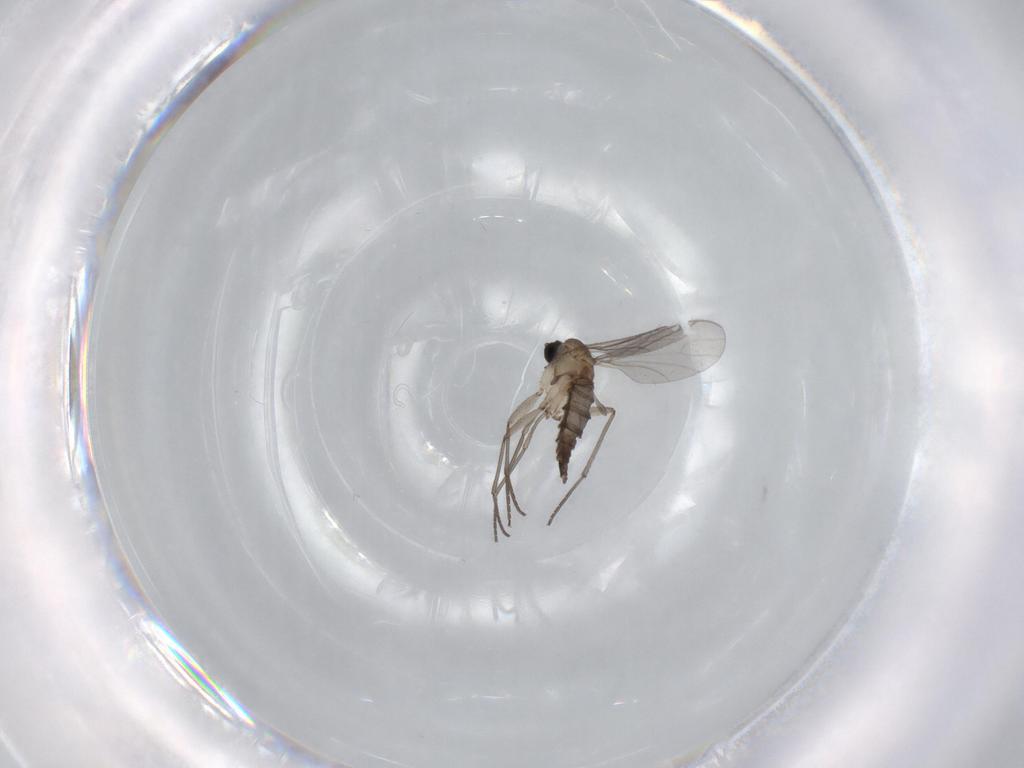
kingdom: Animalia
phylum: Arthropoda
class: Insecta
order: Diptera
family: Sciaridae
